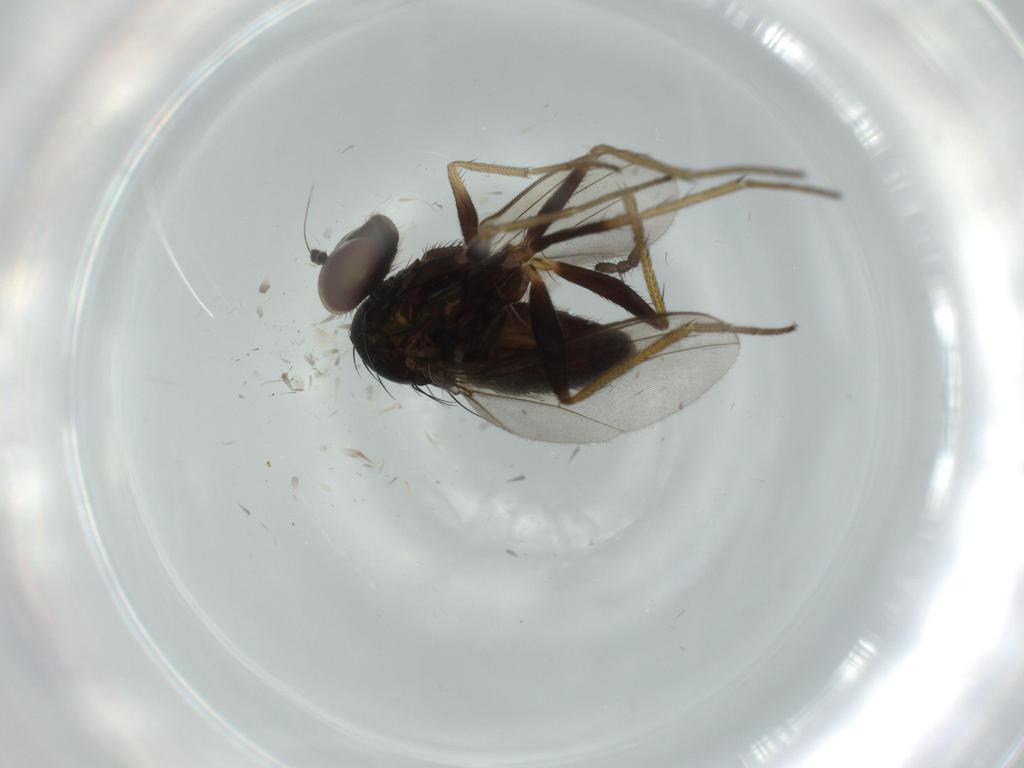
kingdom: Animalia
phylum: Arthropoda
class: Insecta
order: Diptera
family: Bibionidae
